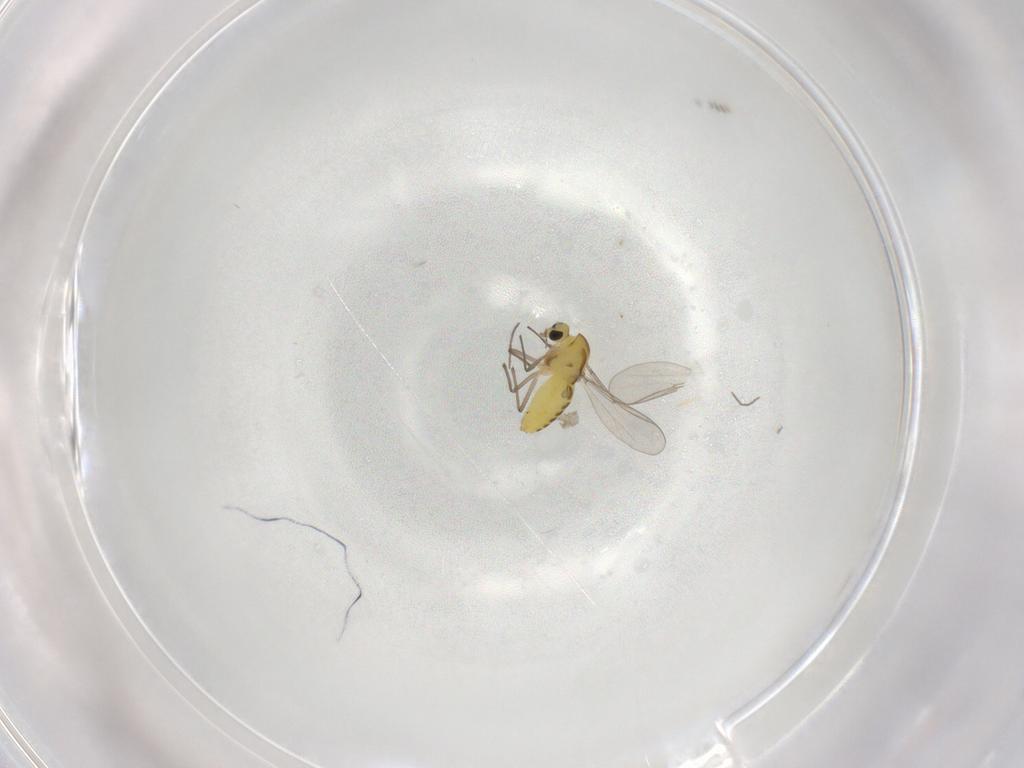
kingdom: Animalia
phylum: Arthropoda
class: Insecta
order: Diptera
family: Chironomidae
